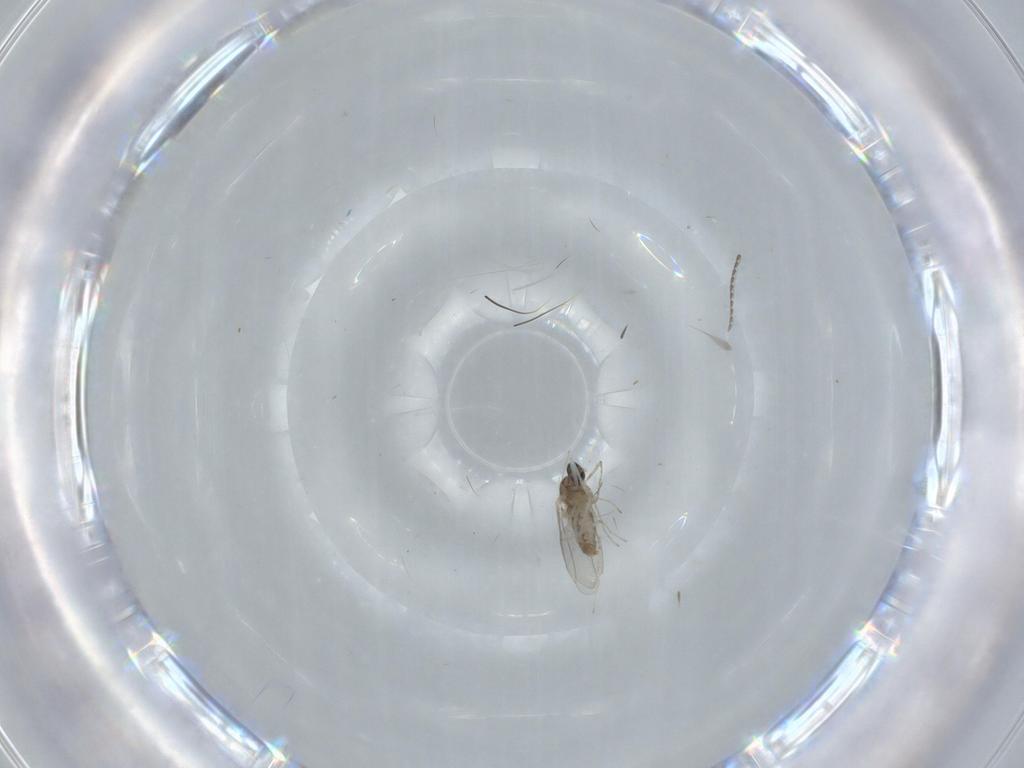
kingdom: Animalia
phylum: Arthropoda
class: Insecta
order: Diptera
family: Cecidomyiidae
